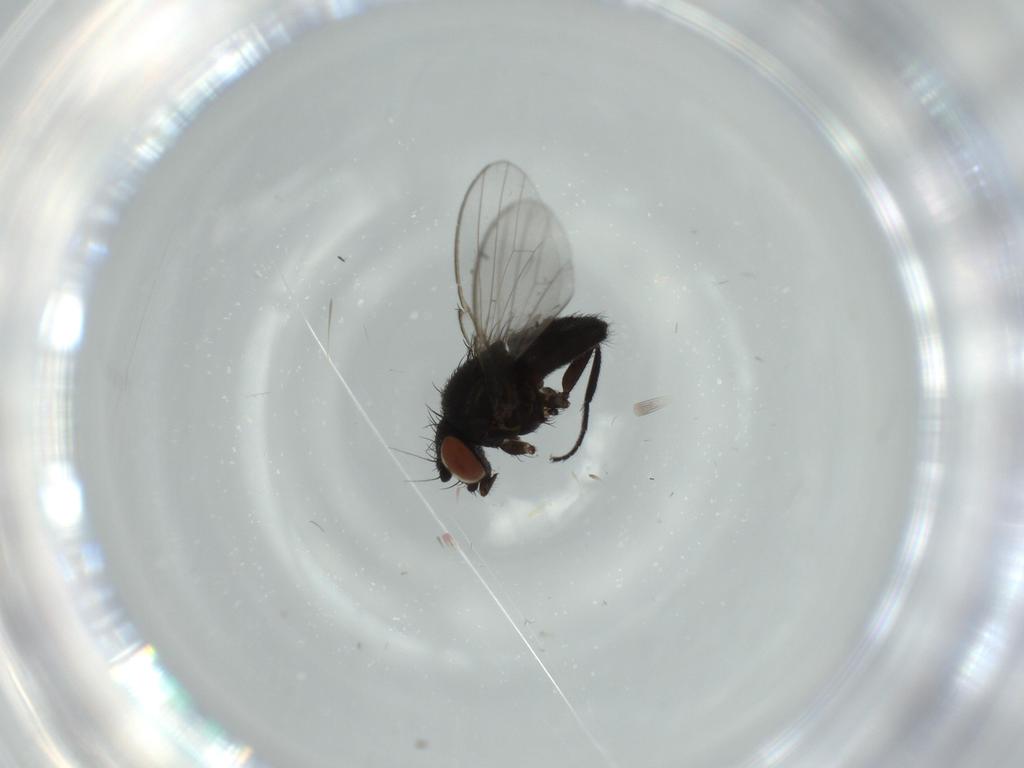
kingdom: Animalia
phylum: Arthropoda
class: Insecta
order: Diptera
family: Milichiidae
